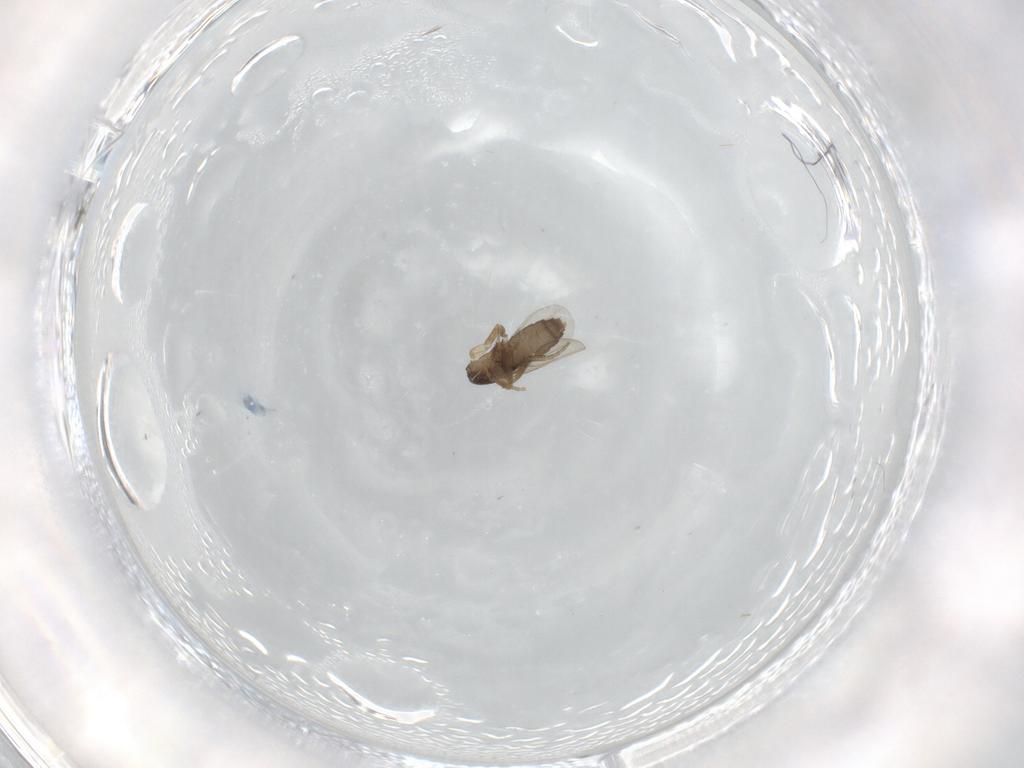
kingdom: Animalia
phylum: Arthropoda
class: Insecta
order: Diptera
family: Phoridae
